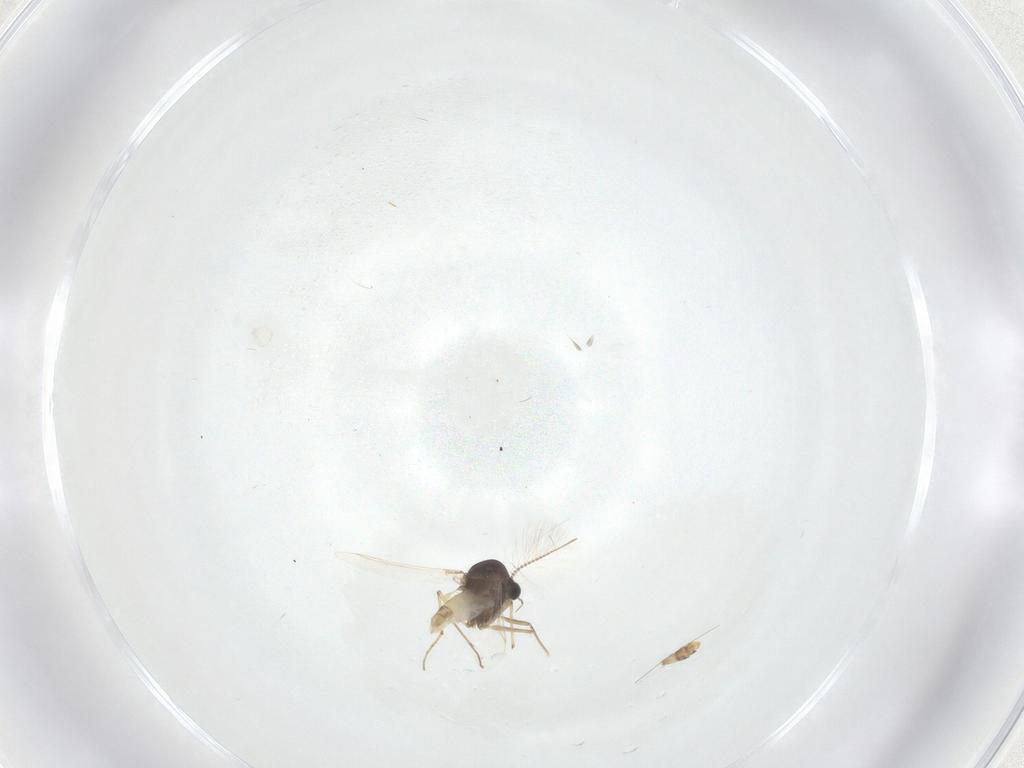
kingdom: Animalia
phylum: Arthropoda
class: Insecta
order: Diptera
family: Chironomidae
